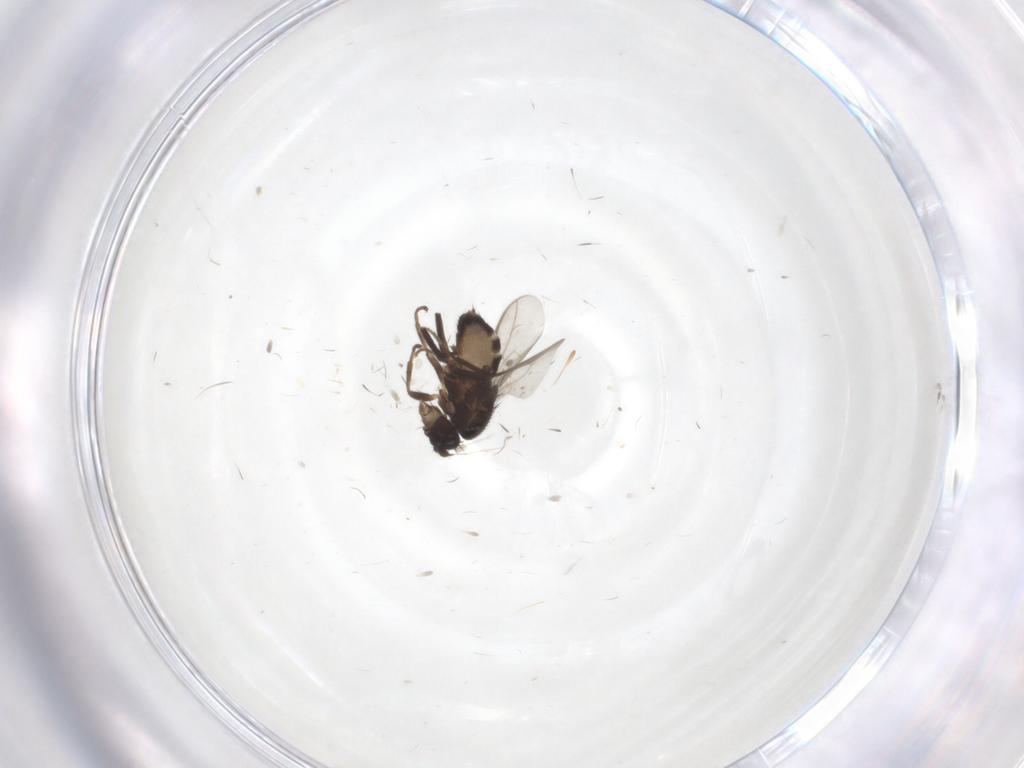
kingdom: Animalia
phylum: Arthropoda
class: Insecta
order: Diptera
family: Sphaeroceridae
